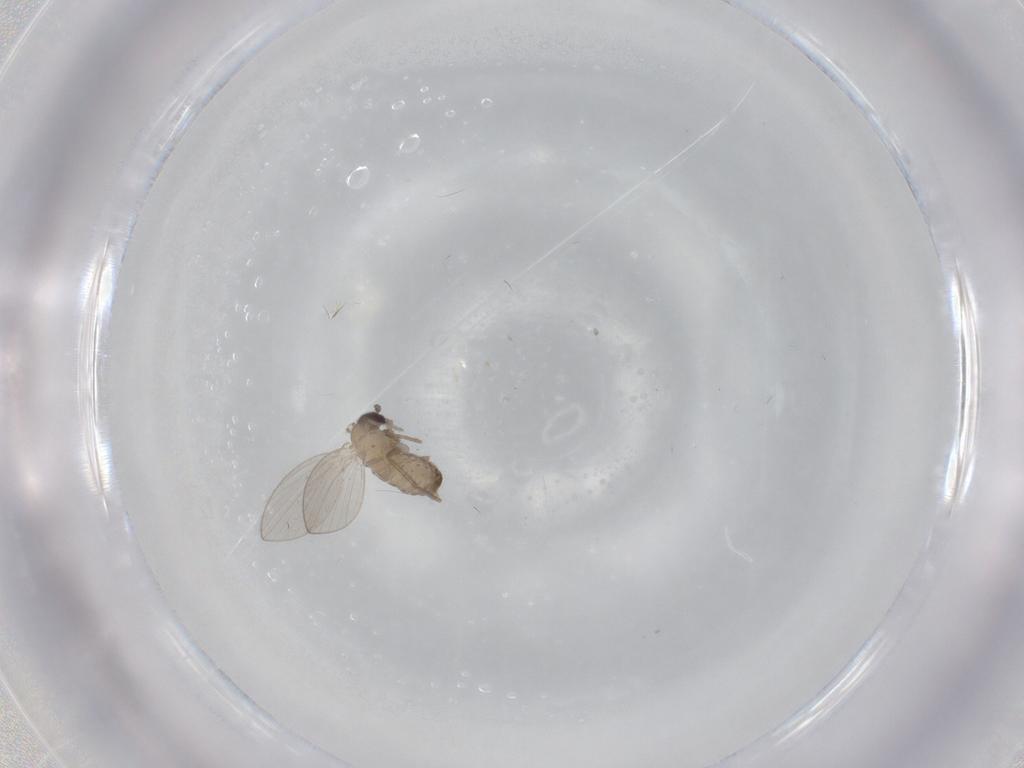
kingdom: Animalia
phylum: Arthropoda
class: Insecta
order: Diptera
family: Psychodidae
